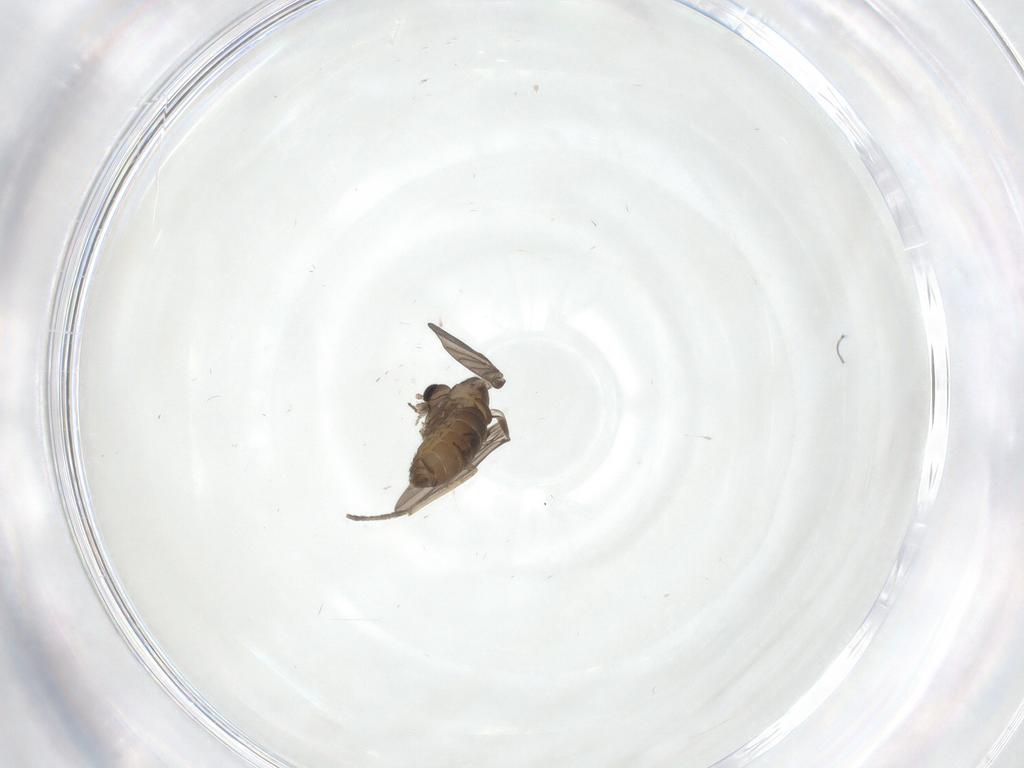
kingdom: Animalia
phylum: Arthropoda
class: Insecta
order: Diptera
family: Psychodidae
